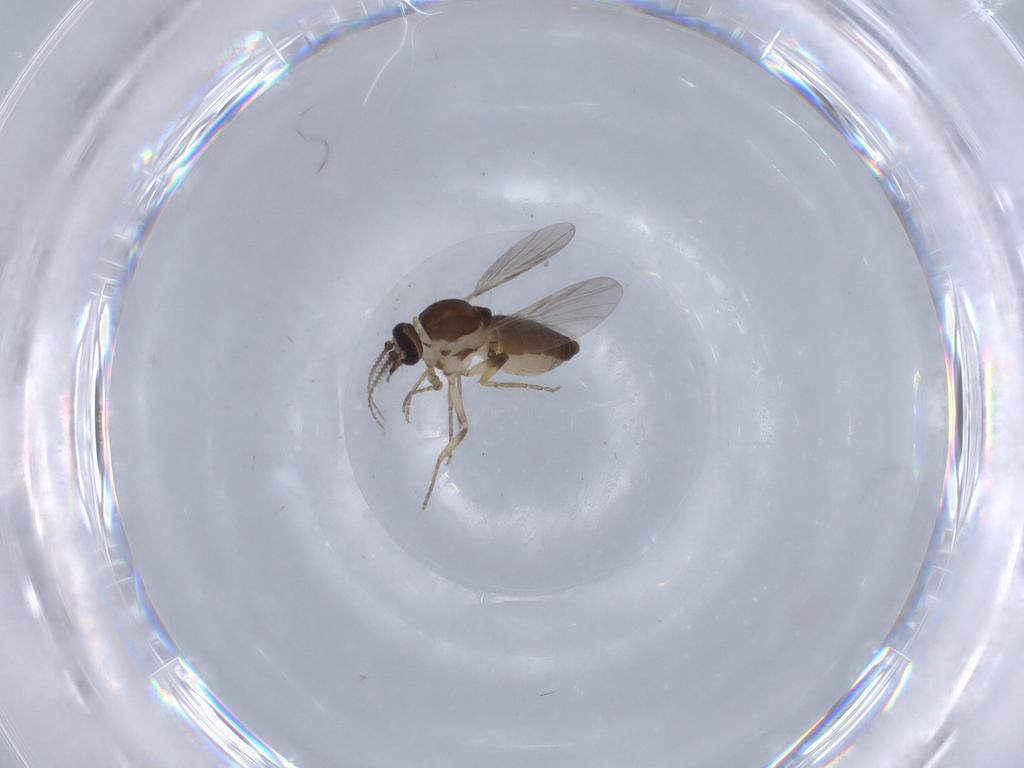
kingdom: Animalia
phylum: Arthropoda
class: Insecta
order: Diptera
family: Ceratopogonidae
